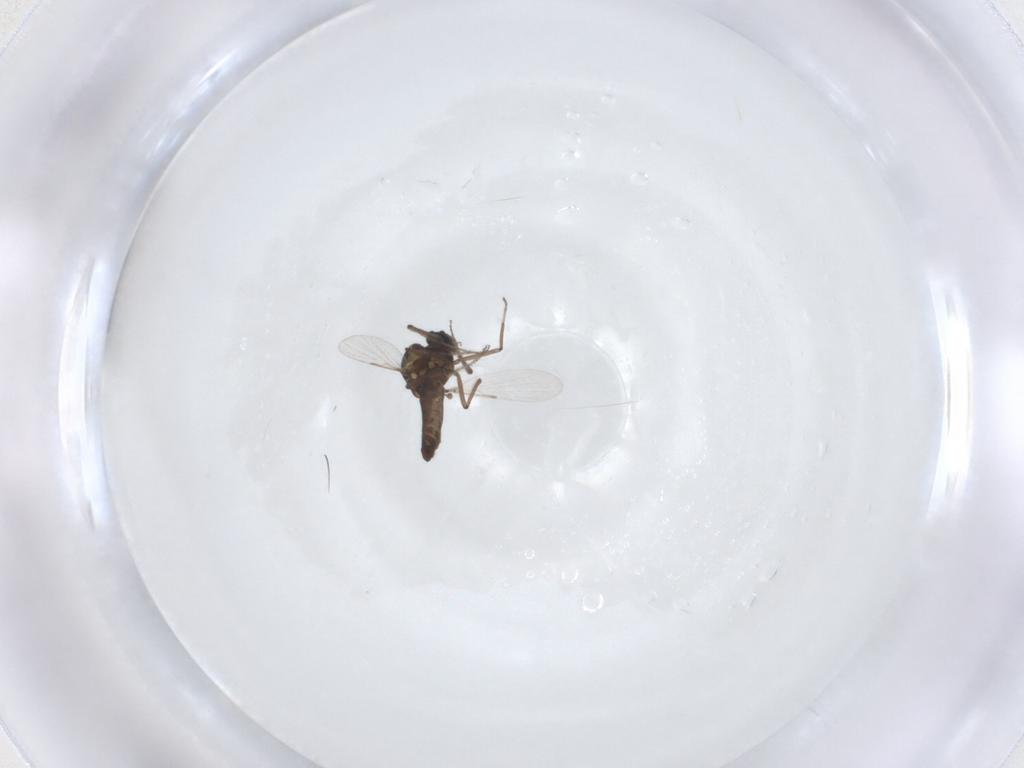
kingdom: Animalia
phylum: Arthropoda
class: Insecta
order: Diptera
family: Ceratopogonidae
